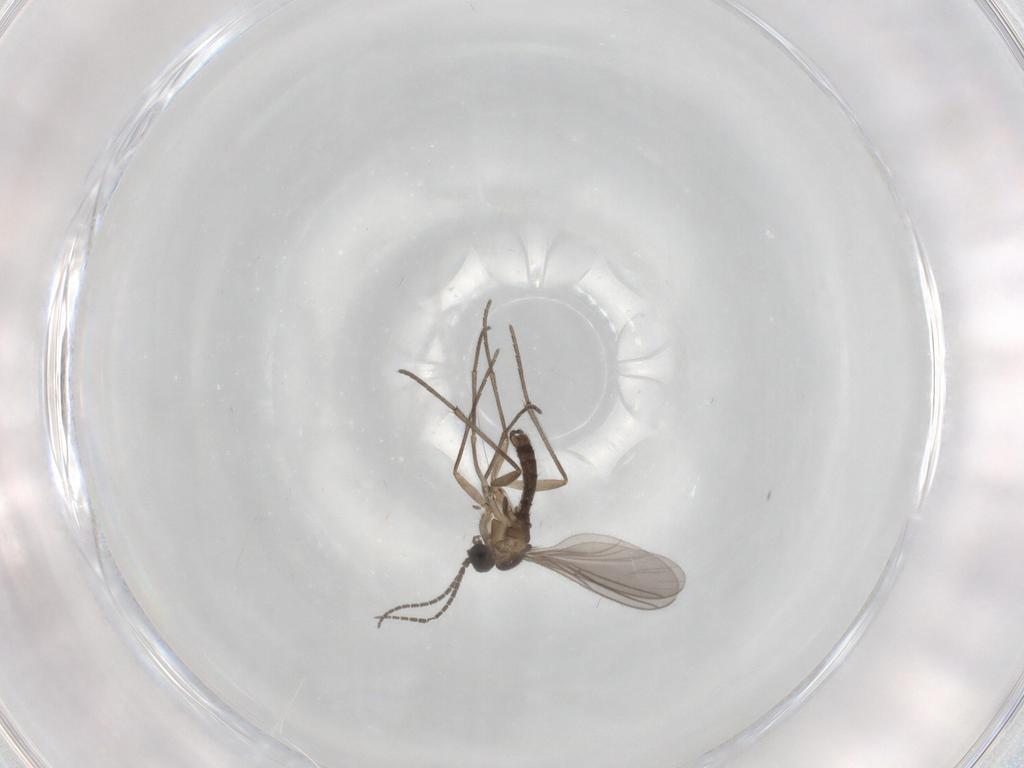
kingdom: Animalia
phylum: Arthropoda
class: Insecta
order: Diptera
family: Sciaridae
